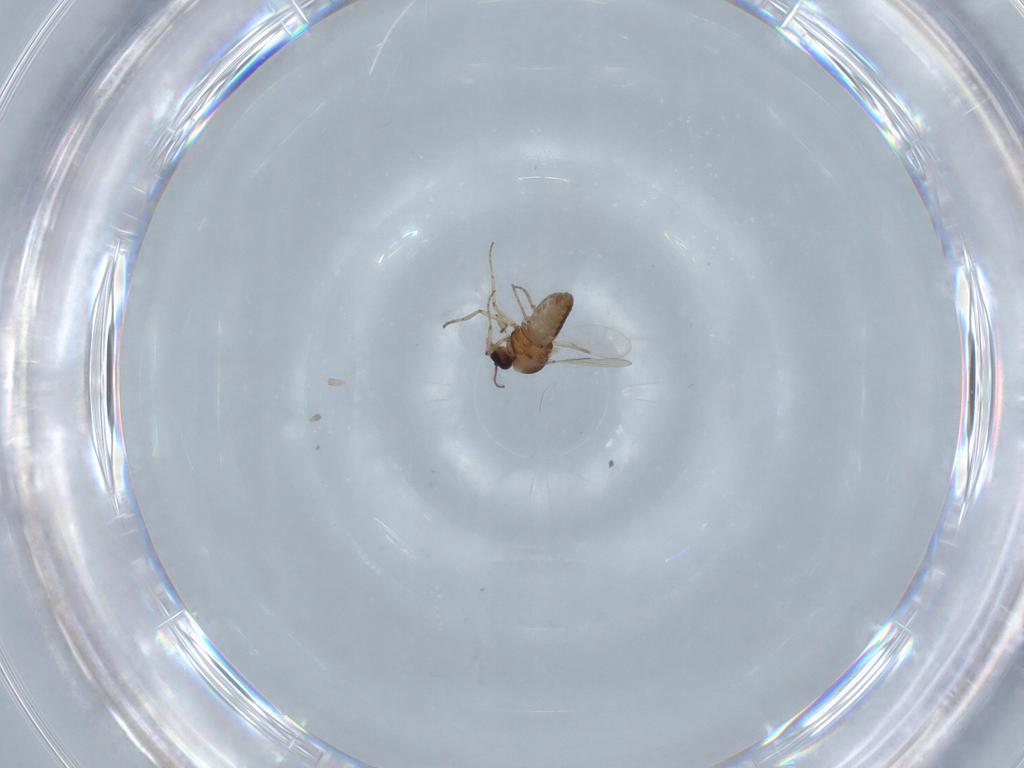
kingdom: Animalia
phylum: Arthropoda
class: Insecta
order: Diptera
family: Ceratopogonidae
